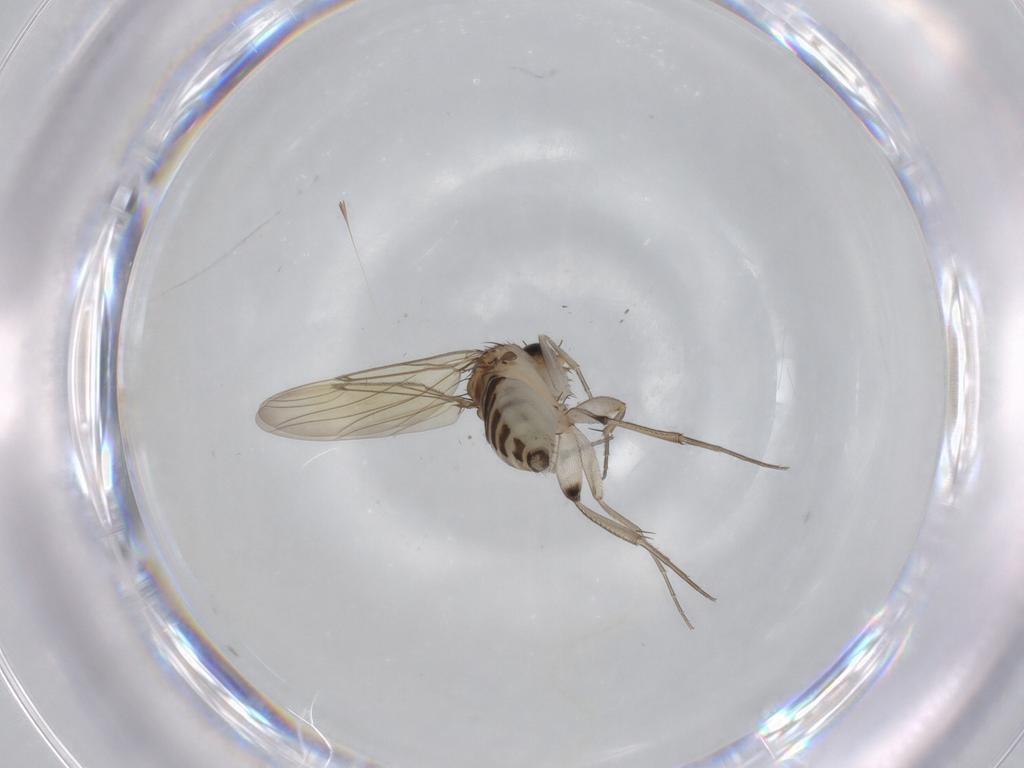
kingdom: Animalia
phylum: Arthropoda
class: Insecta
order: Diptera
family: Phoridae
